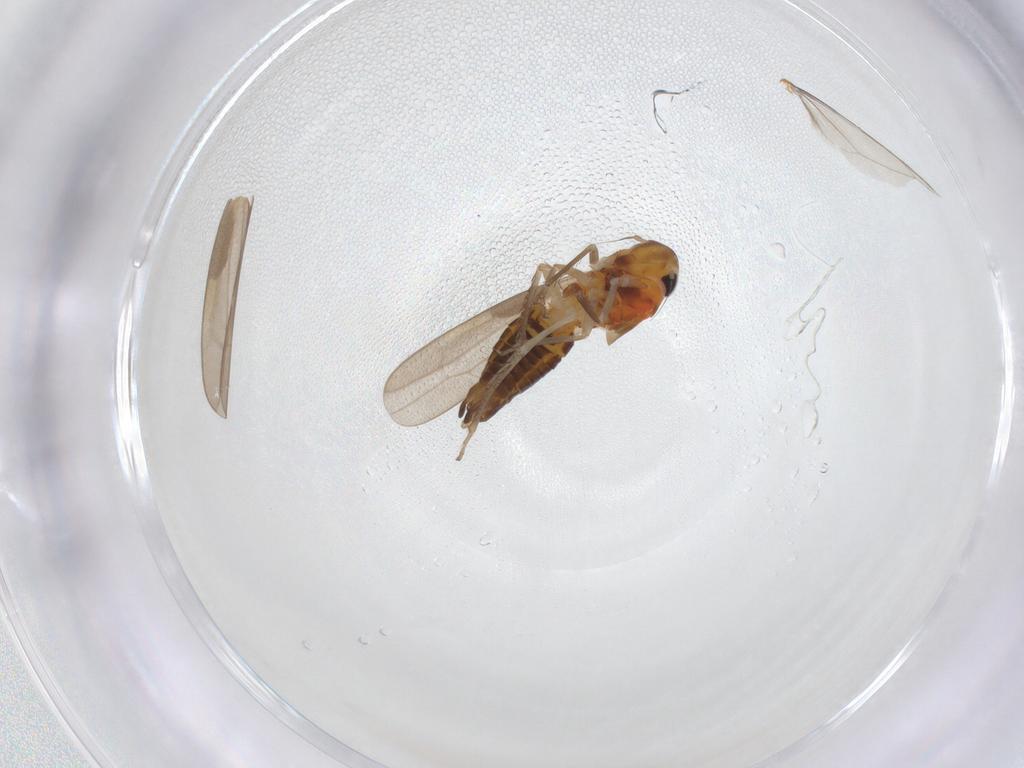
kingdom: Animalia
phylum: Arthropoda
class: Insecta
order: Hemiptera
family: Cicadellidae
